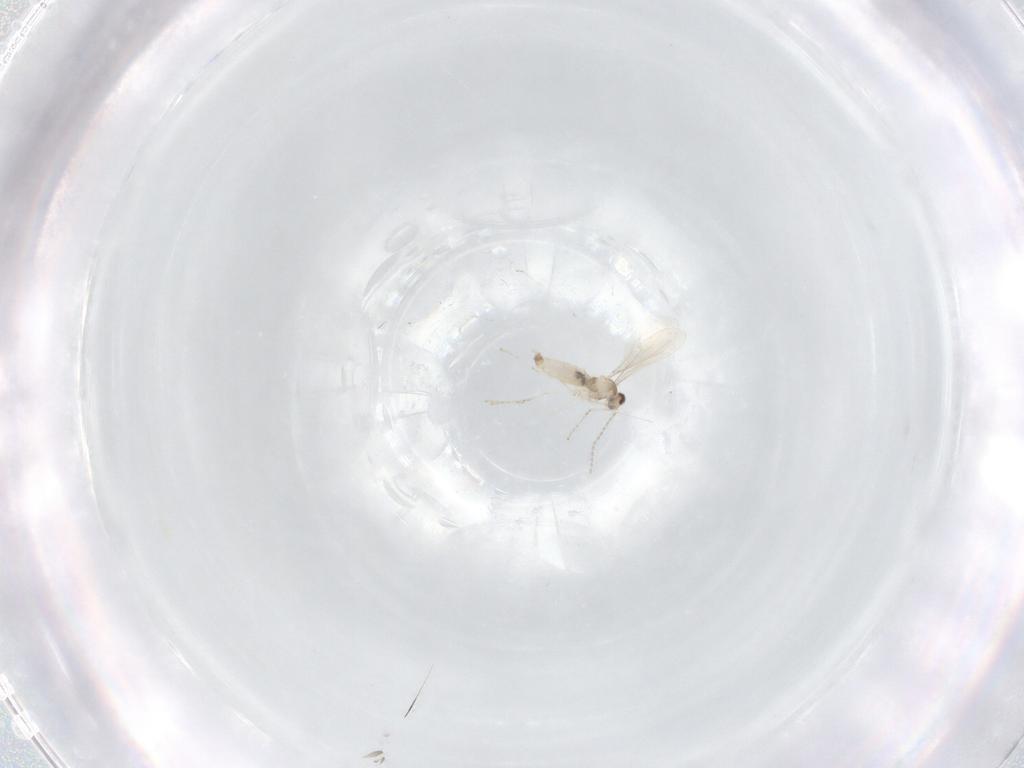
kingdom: Animalia
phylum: Arthropoda
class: Insecta
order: Diptera
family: Cecidomyiidae
